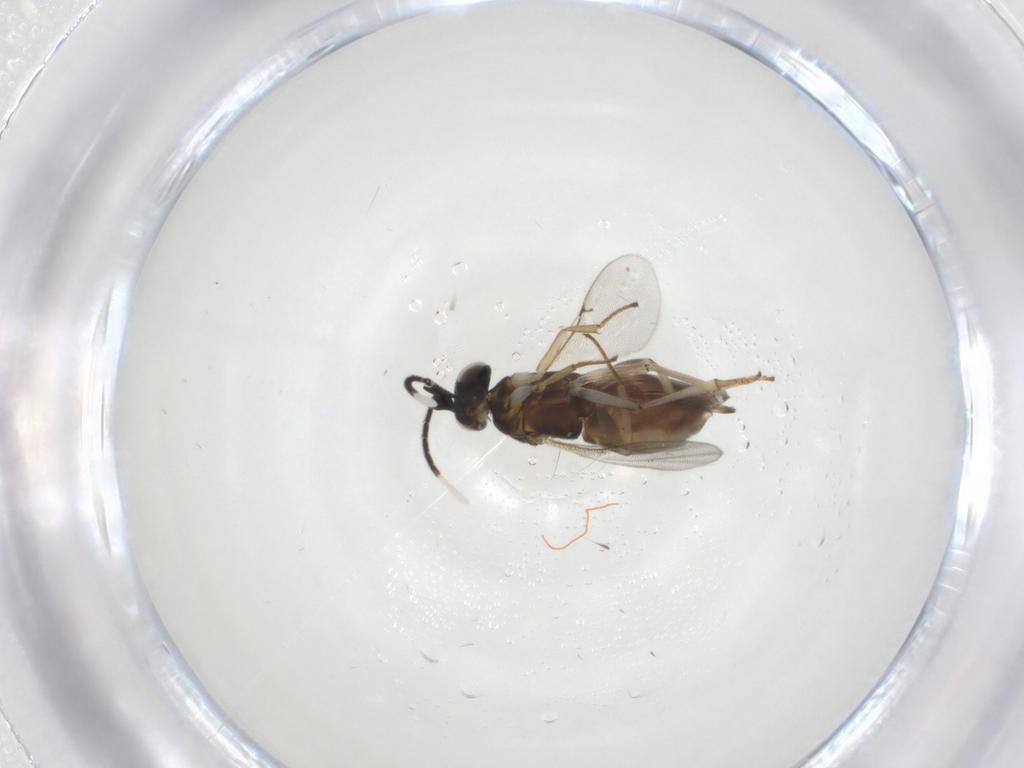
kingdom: Animalia
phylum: Arthropoda
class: Insecta
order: Hymenoptera
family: Encyrtidae
